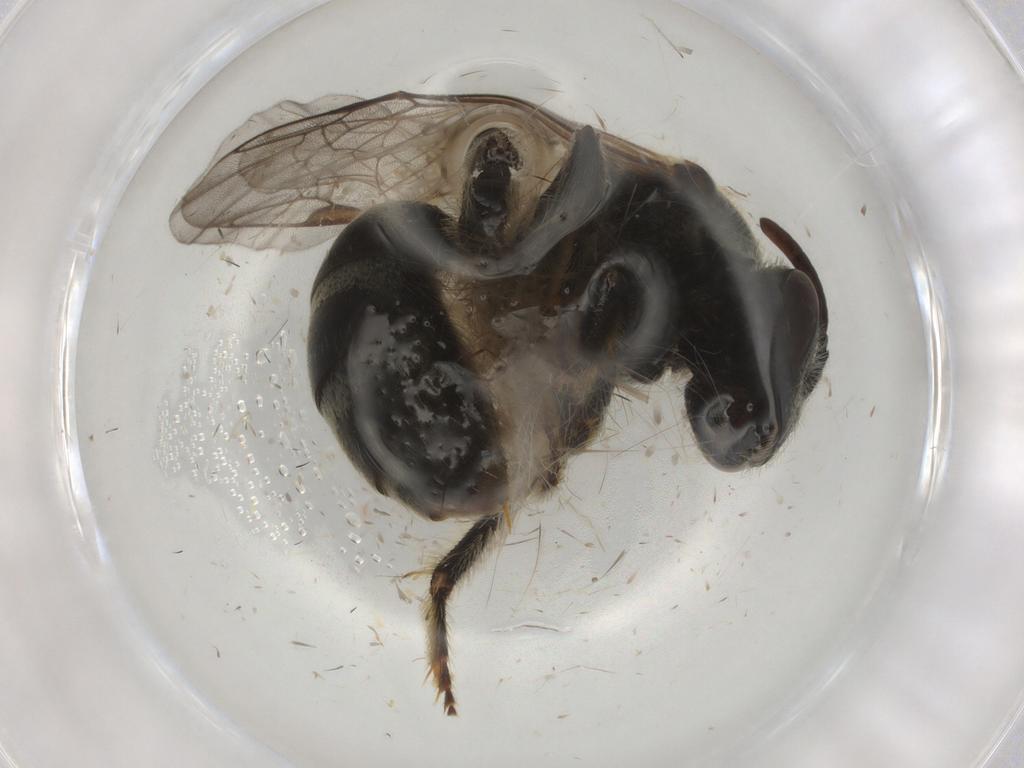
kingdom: Animalia
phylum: Arthropoda
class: Insecta
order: Hymenoptera
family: Halictidae
